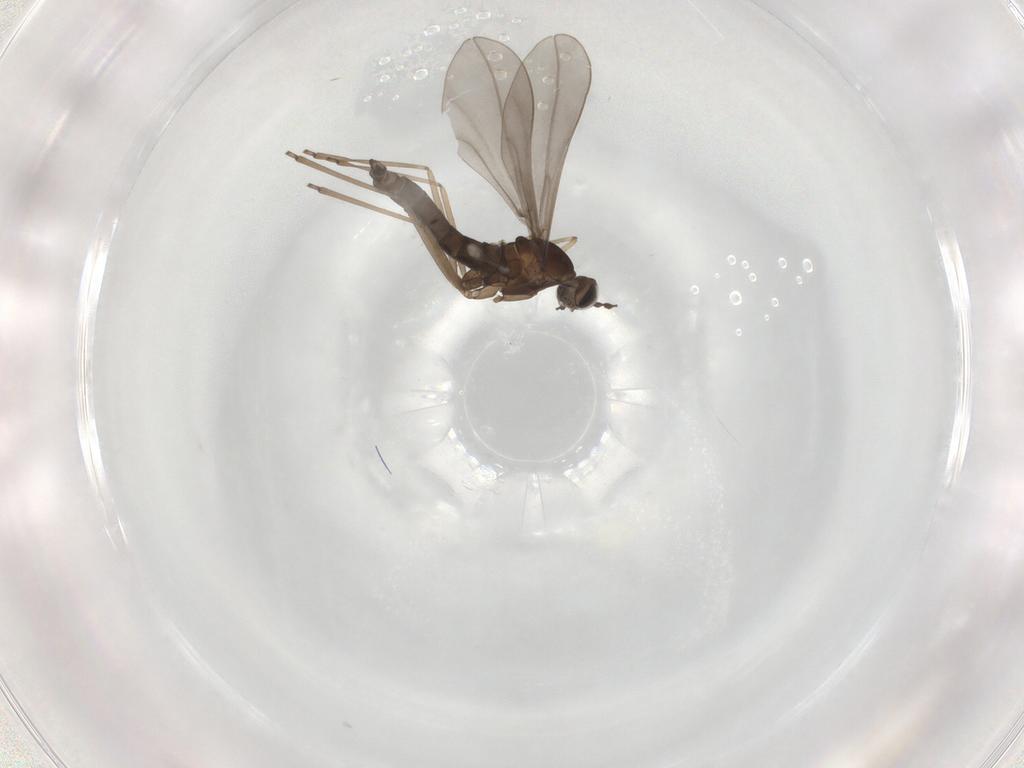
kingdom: Animalia
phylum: Arthropoda
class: Insecta
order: Diptera
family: Cecidomyiidae
